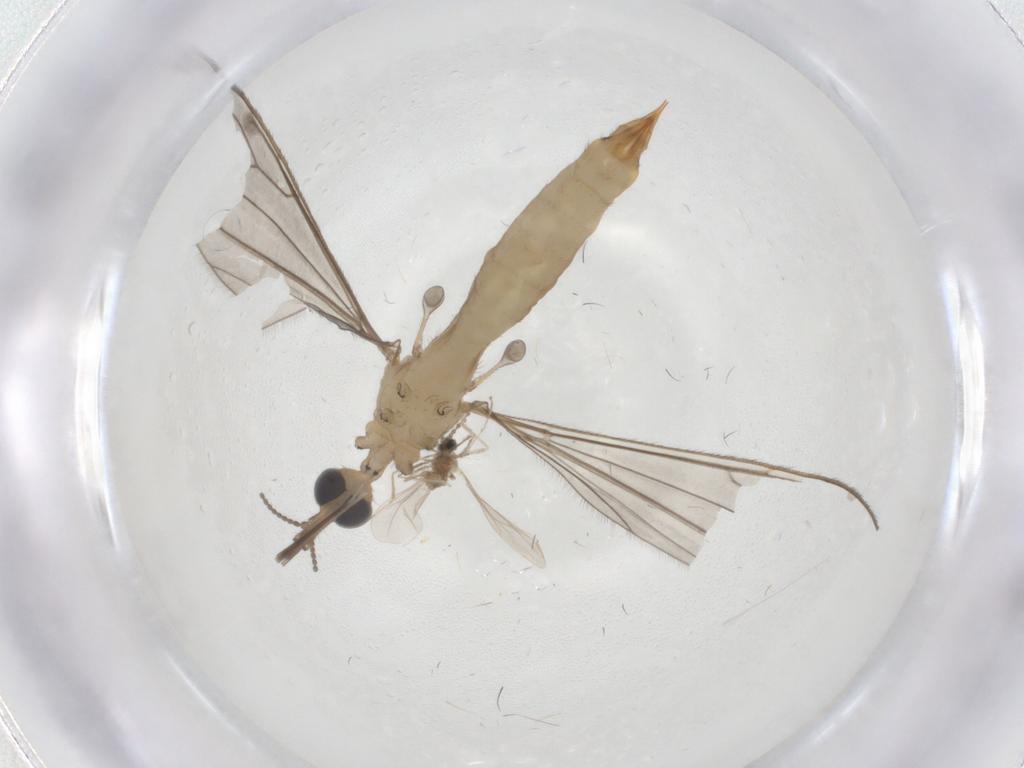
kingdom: Animalia
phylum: Arthropoda
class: Insecta
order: Diptera
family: Limoniidae
